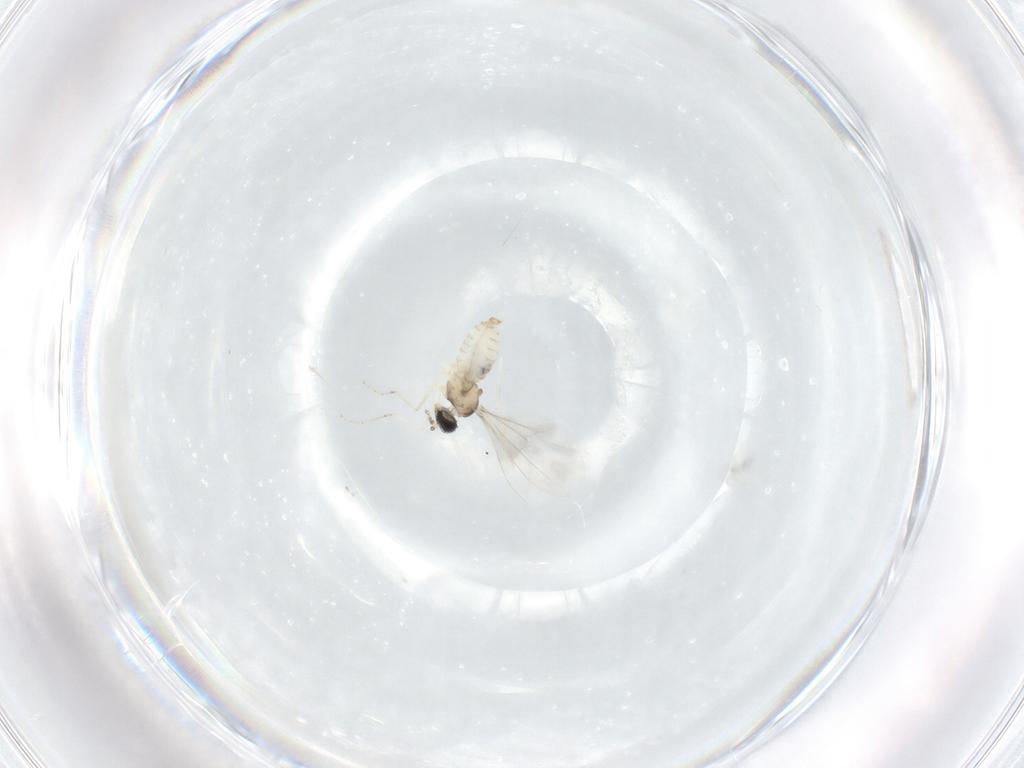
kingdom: Animalia
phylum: Arthropoda
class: Insecta
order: Diptera
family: Cecidomyiidae
